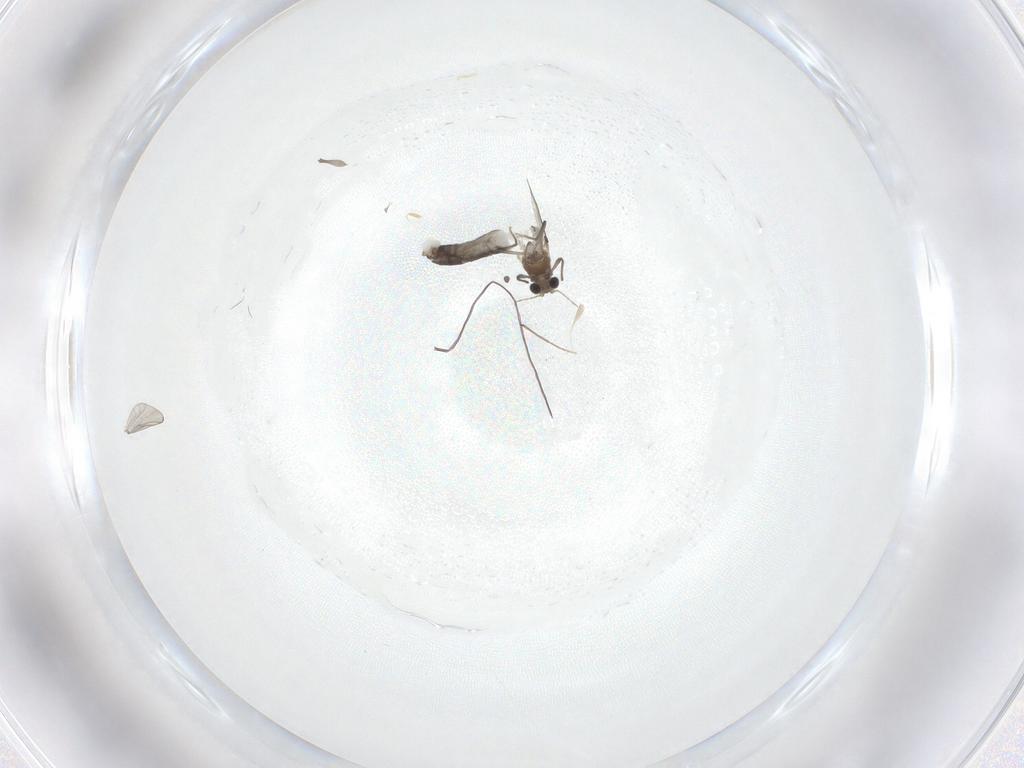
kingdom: Animalia
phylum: Arthropoda
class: Insecta
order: Diptera
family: Chironomidae
